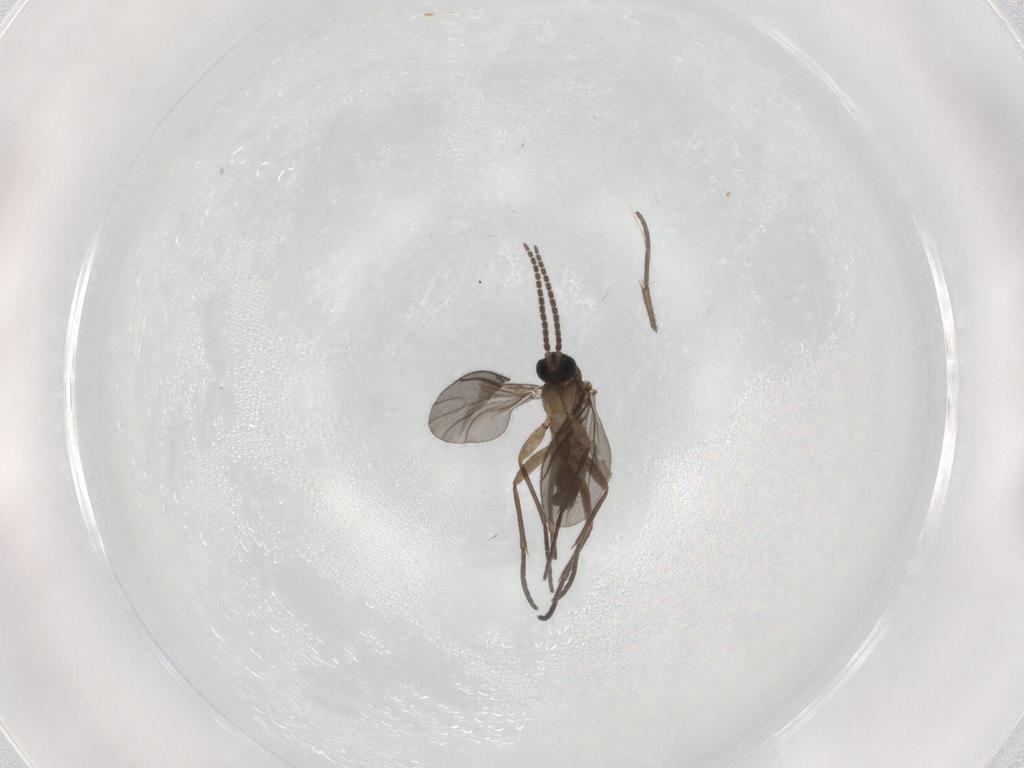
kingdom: Animalia
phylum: Arthropoda
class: Insecta
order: Diptera
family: Sciaridae
